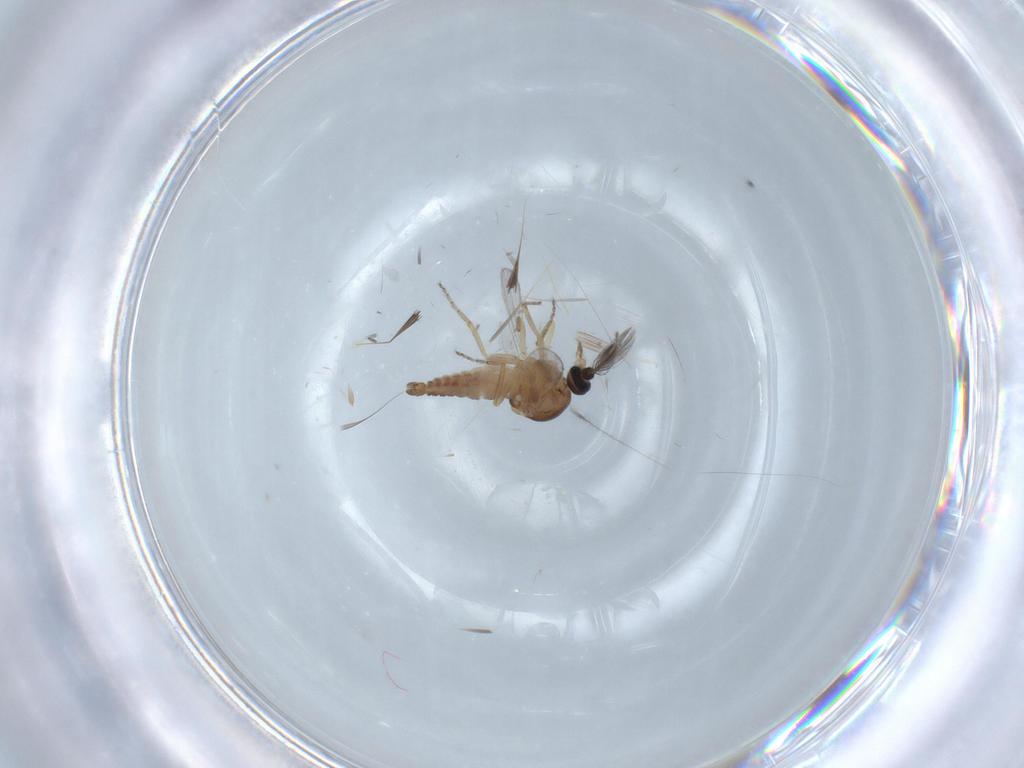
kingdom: Animalia
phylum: Arthropoda
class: Insecta
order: Diptera
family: Ceratopogonidae
